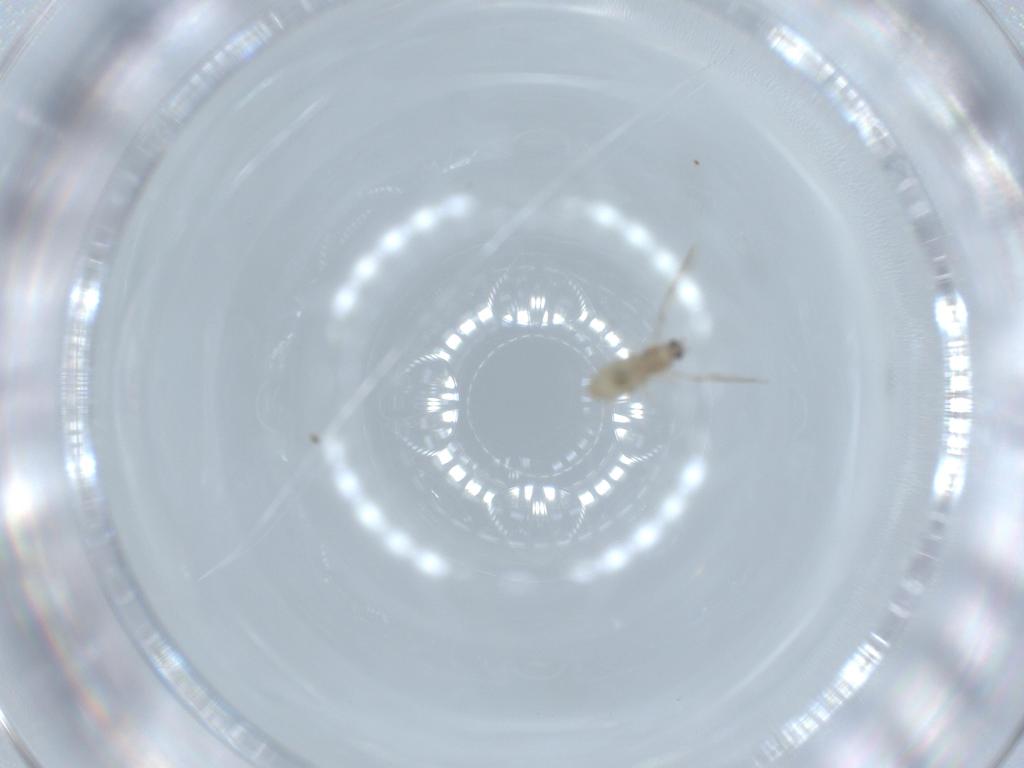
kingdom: Animalia
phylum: Arthropoda
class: Insecta
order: Diptera
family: Cecidomyiidae
